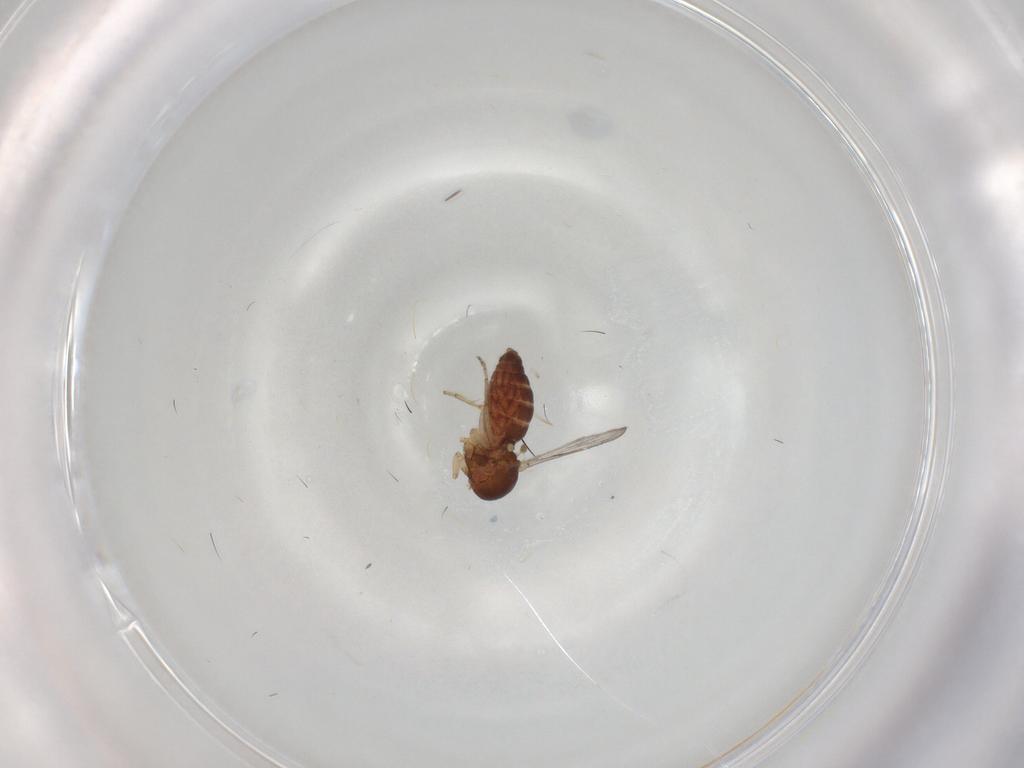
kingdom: Animalia
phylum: Arthropoda
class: Insecta
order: Diptera
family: Ceratopogonidae
